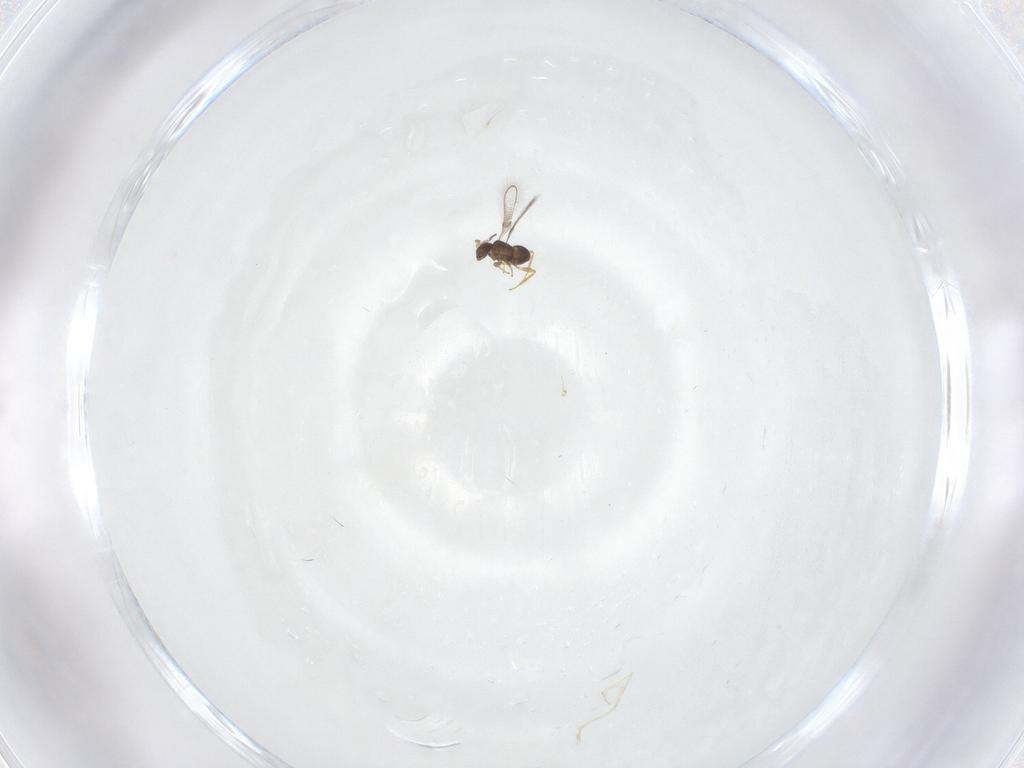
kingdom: Animalia
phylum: Arthropoda
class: Insecta
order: Hymenoptera
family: Mymaridae
